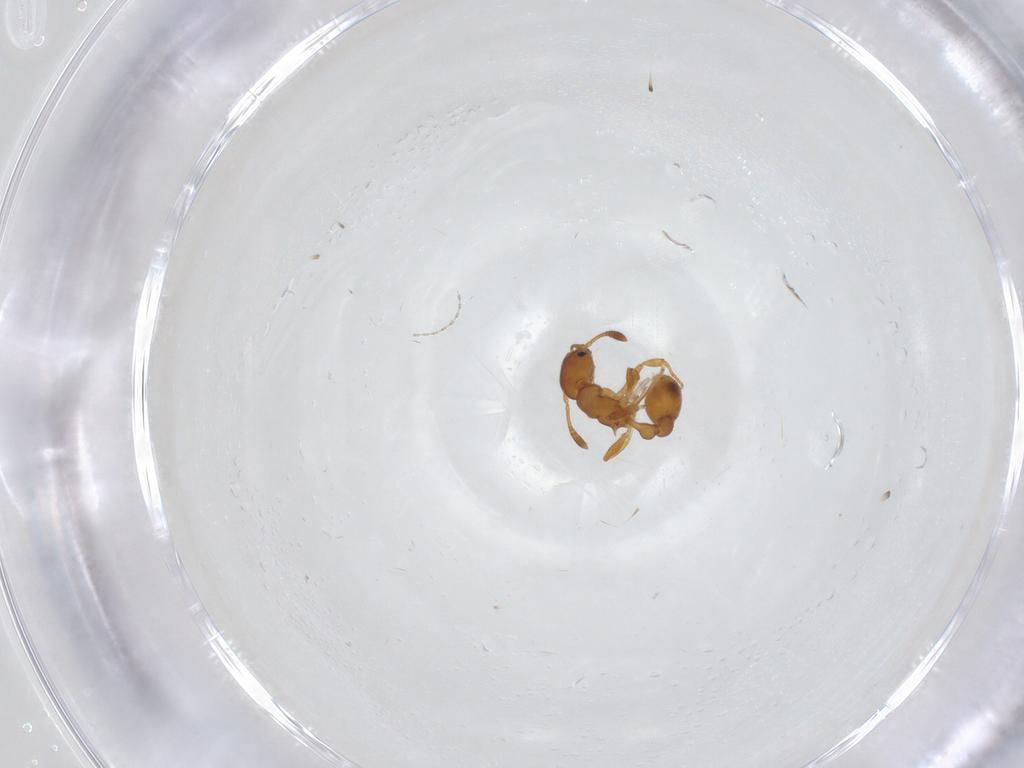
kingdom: Animalia
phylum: Arthropoda
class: Insecta
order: Hymenoptera
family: Formicidae
